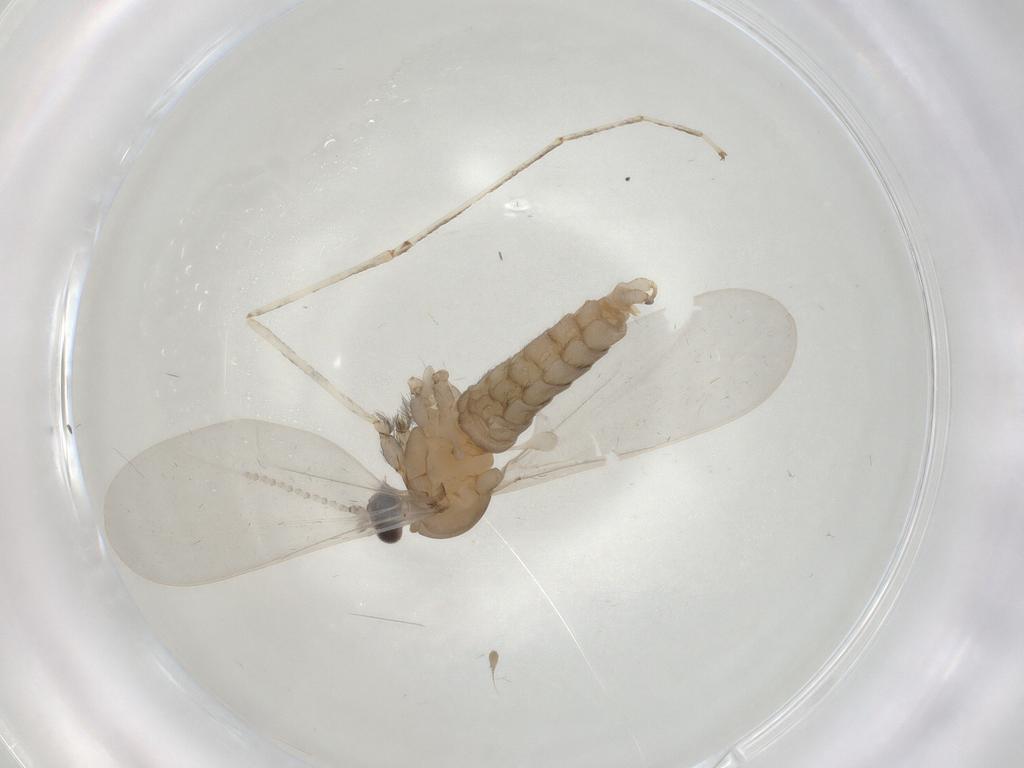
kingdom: Animalia
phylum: Arthropoda
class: Insecta
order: Diptera
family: Cecidomyiidae
